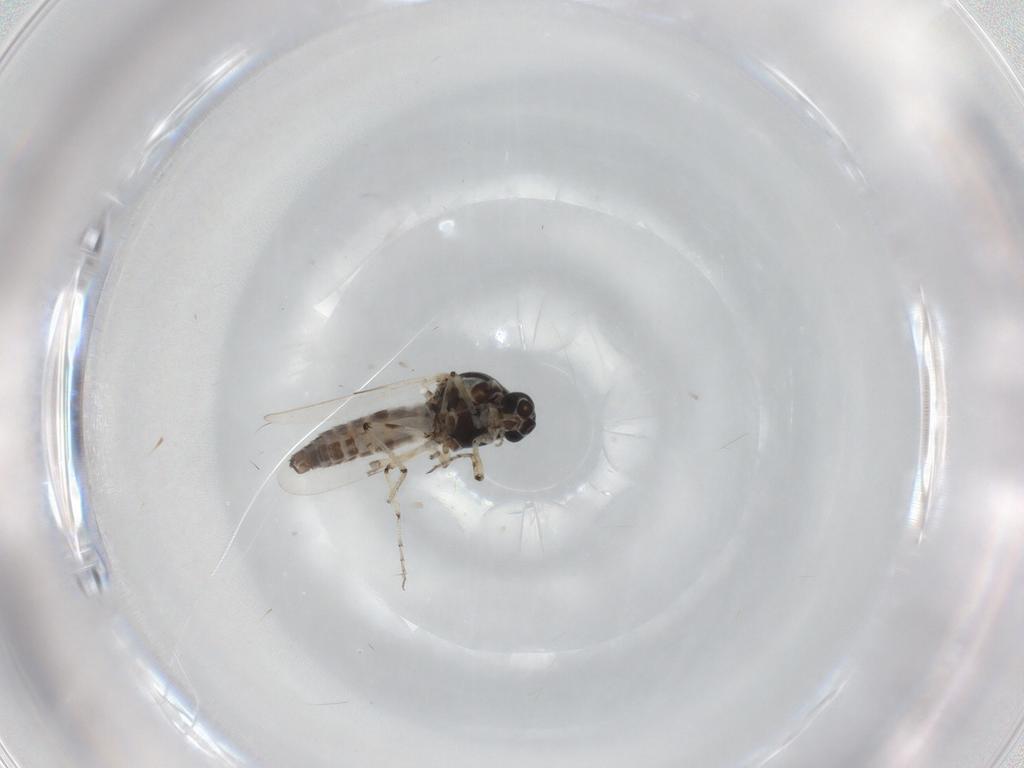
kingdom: Animalia
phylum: Arthropoda
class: Insecta
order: Diptera
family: Ceratopogonidae
